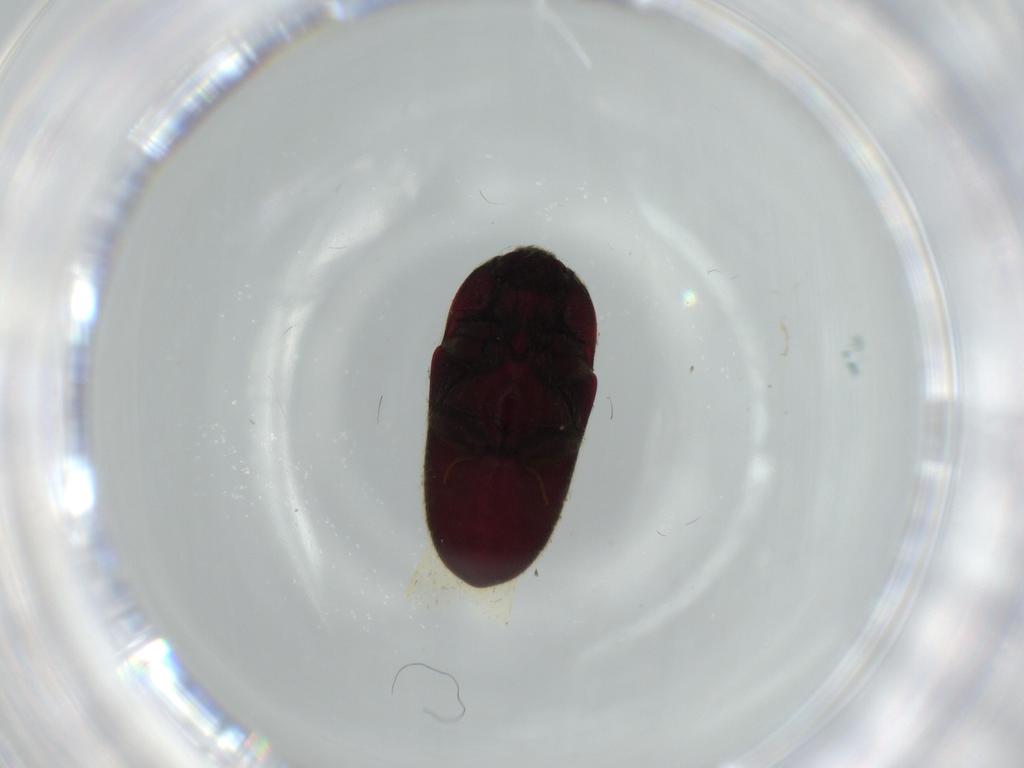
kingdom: Animalia
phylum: Arthropoda
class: Insecta
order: Coleoptera
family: Throscidae
